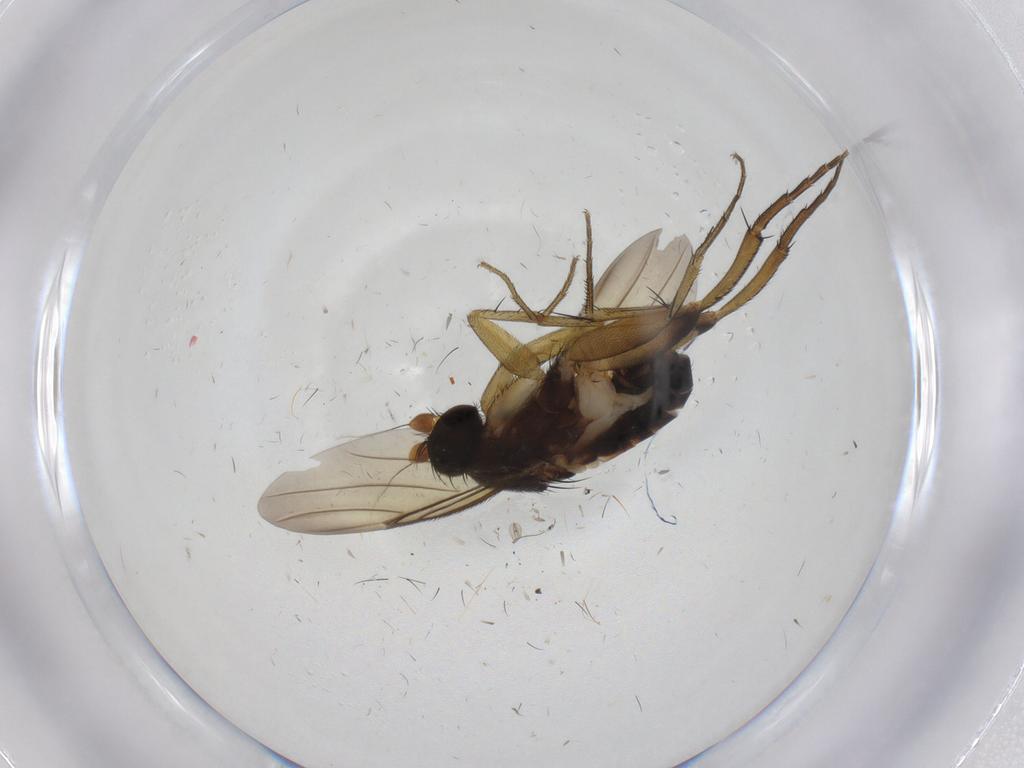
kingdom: Animalia
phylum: Arthropoda
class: Insecta
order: Diptera
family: Phoridae
